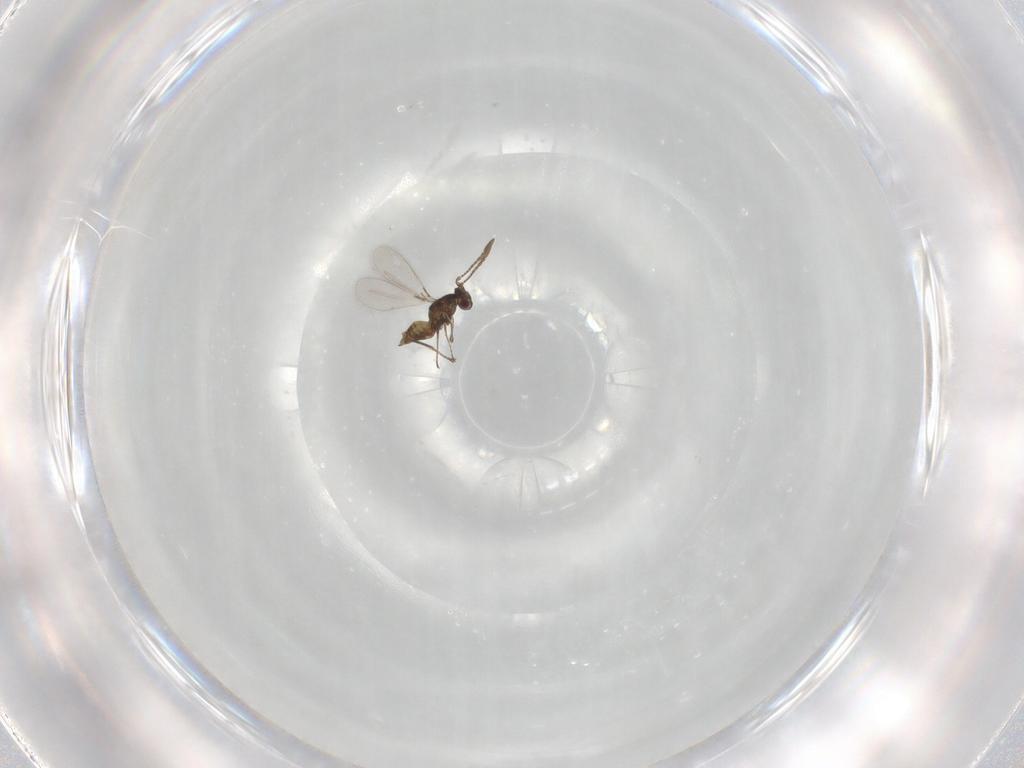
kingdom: Animalia
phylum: Arthropoda
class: Insecta
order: Hymenoptera
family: Mymaridae
